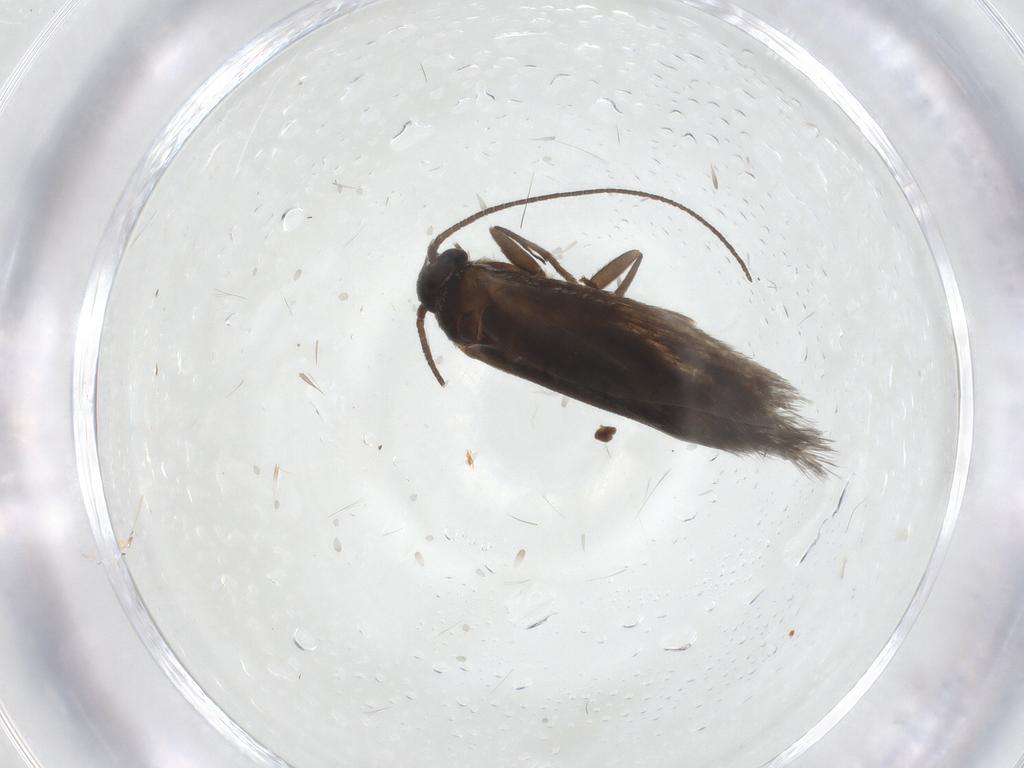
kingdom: Animalia
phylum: Arthropoda
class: Insecta
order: Lepidoptera
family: Heliozelidae
